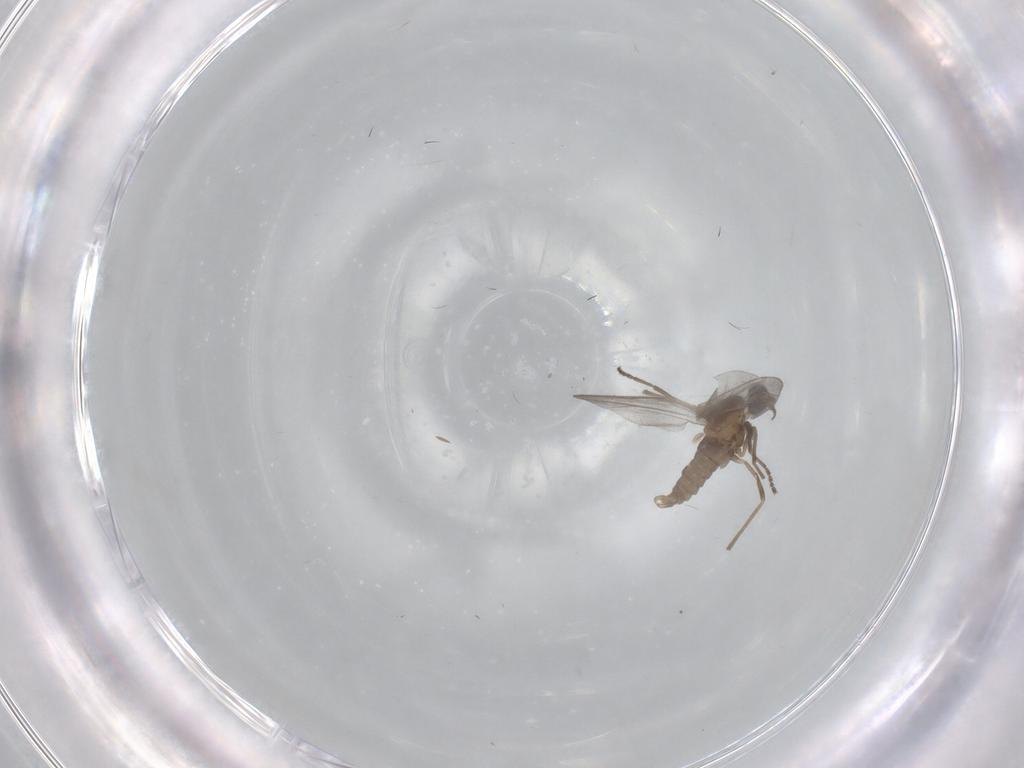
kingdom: Animalia
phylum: Arthropoda
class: Insecta
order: Diptera
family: Cecidomyiidae
